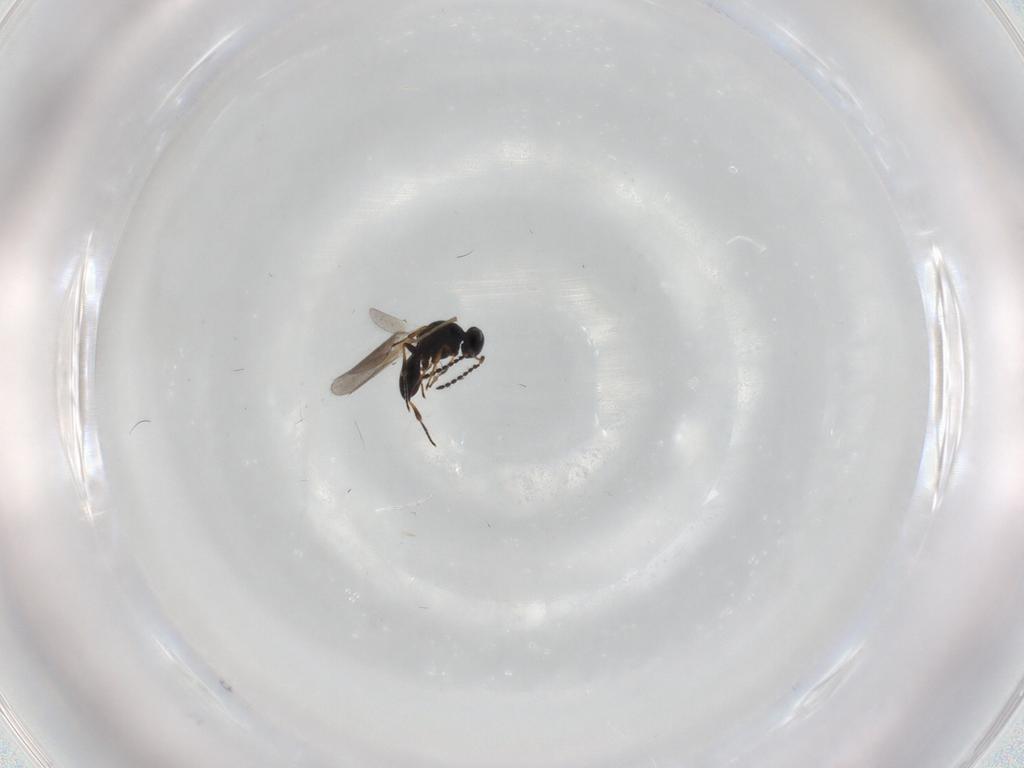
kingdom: Animalia
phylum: Arthropoda
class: Insecta
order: Hymenoptera
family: Platygastridae
